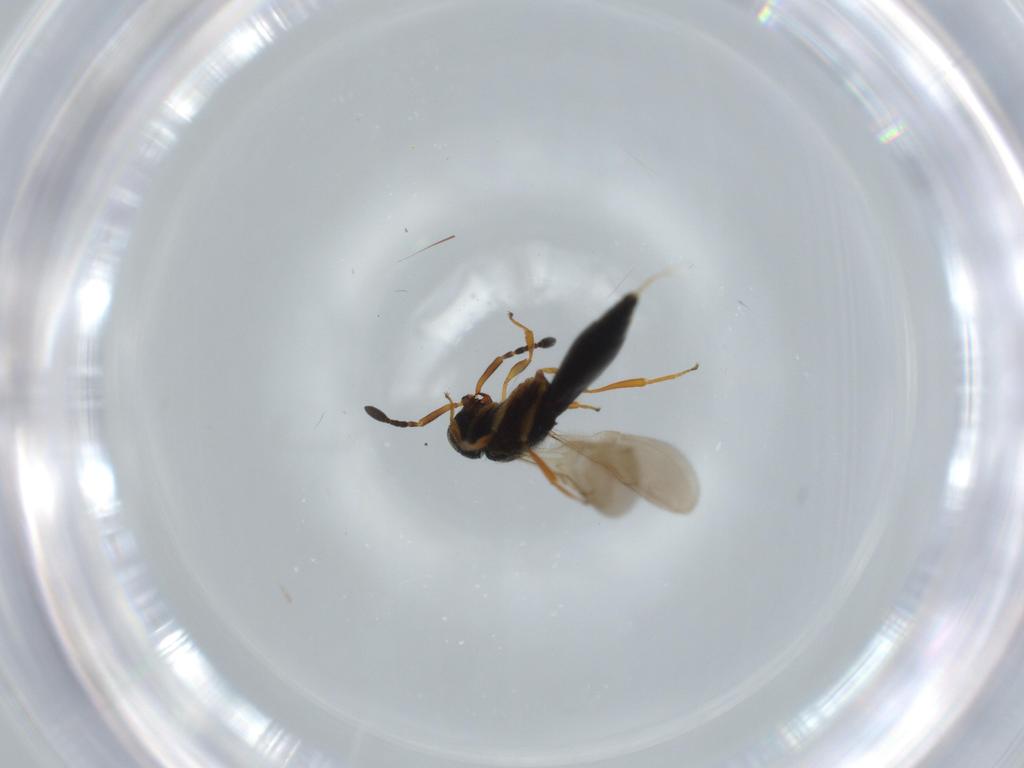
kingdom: Animalia
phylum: Arthropoda
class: Insecta
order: Hymenoptera
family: Scelionidae
